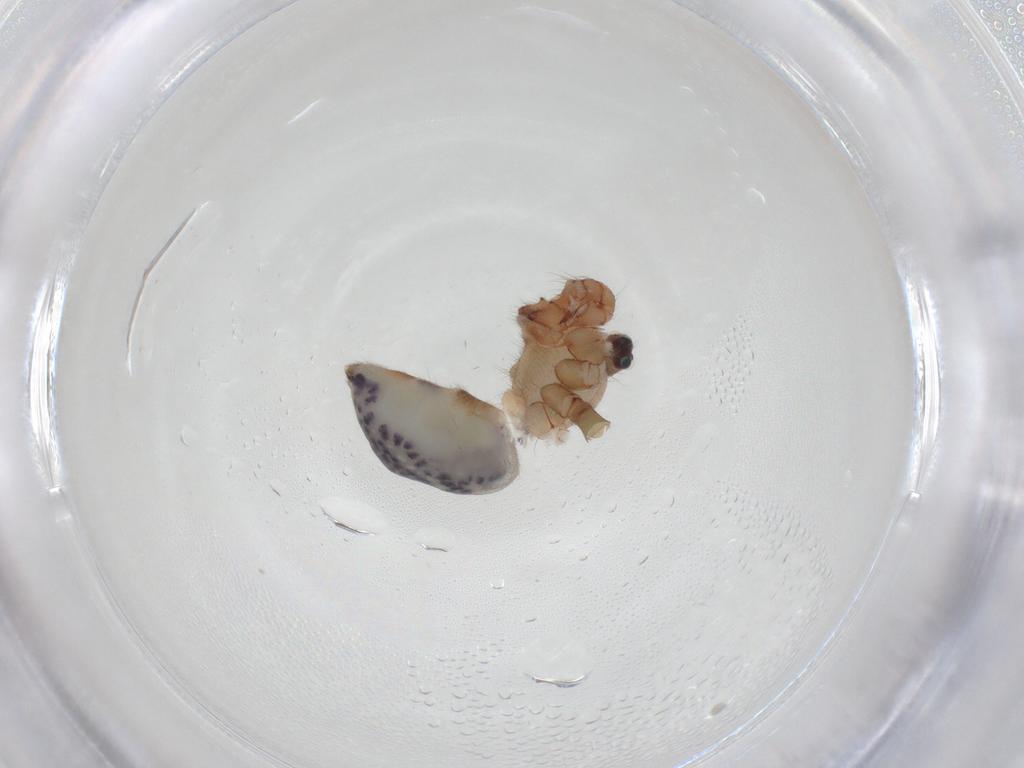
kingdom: Animalia
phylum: Arthropoda
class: Arachnida
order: Araneae
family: Pholcidae
